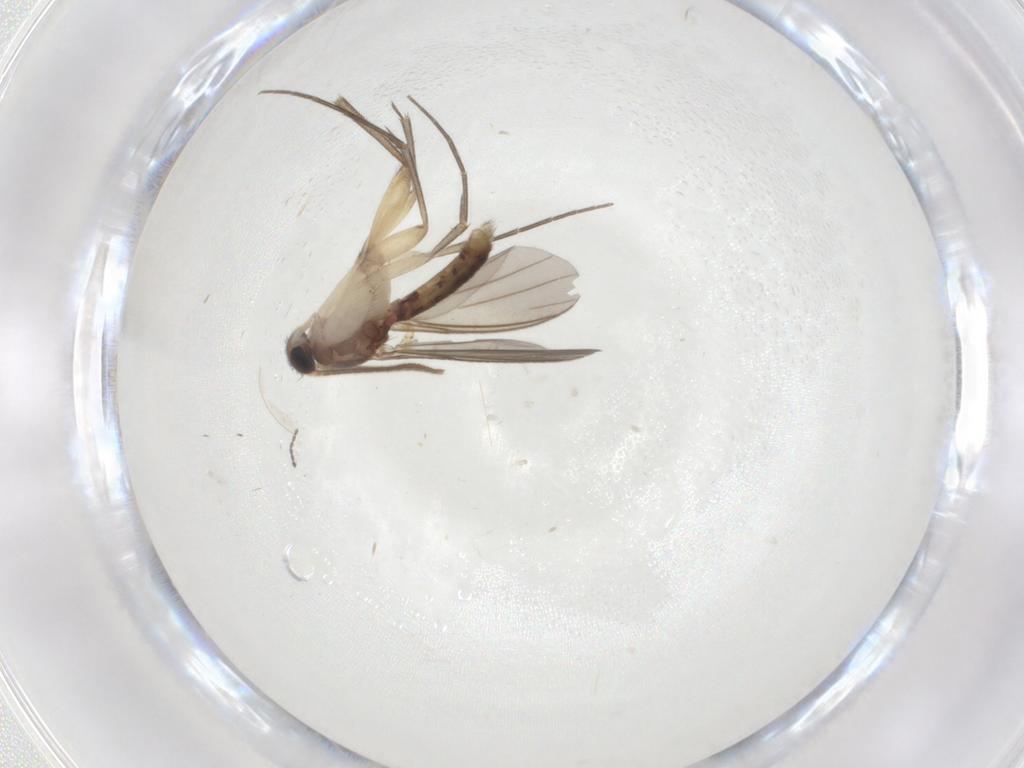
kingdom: Animalia
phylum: Arthropoda
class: Insecta
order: Diptera
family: Mycetophilidae
